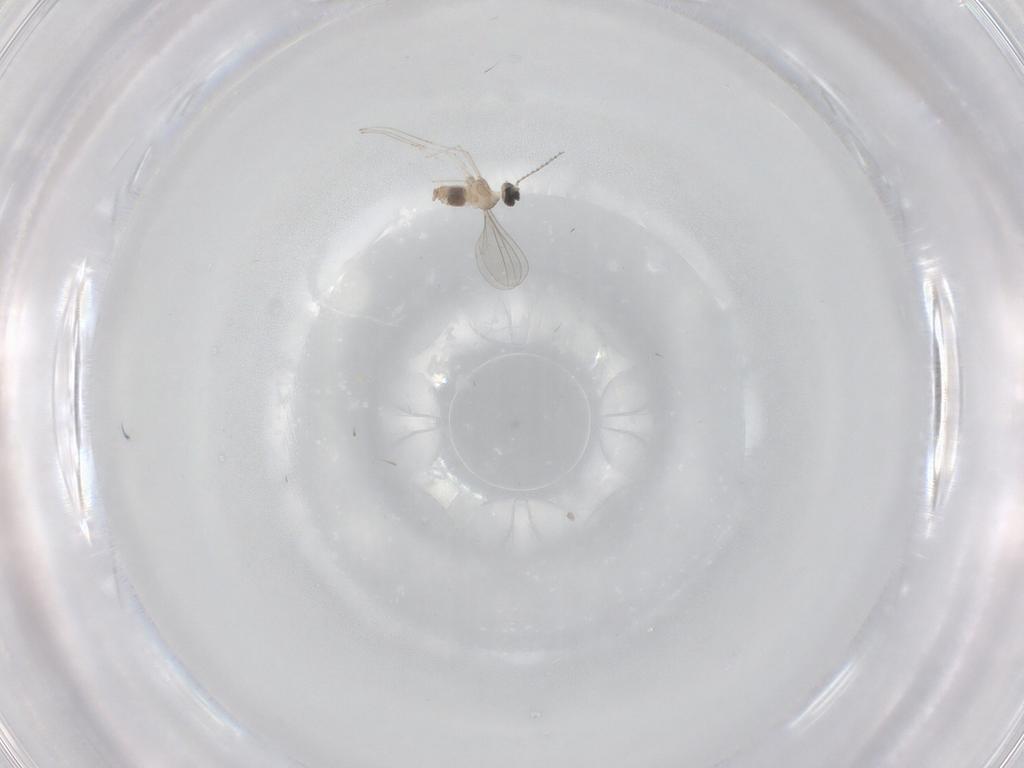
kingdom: Animalia
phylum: Arthropoda
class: Insecta
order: Diptera
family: Cecidomyiidae
